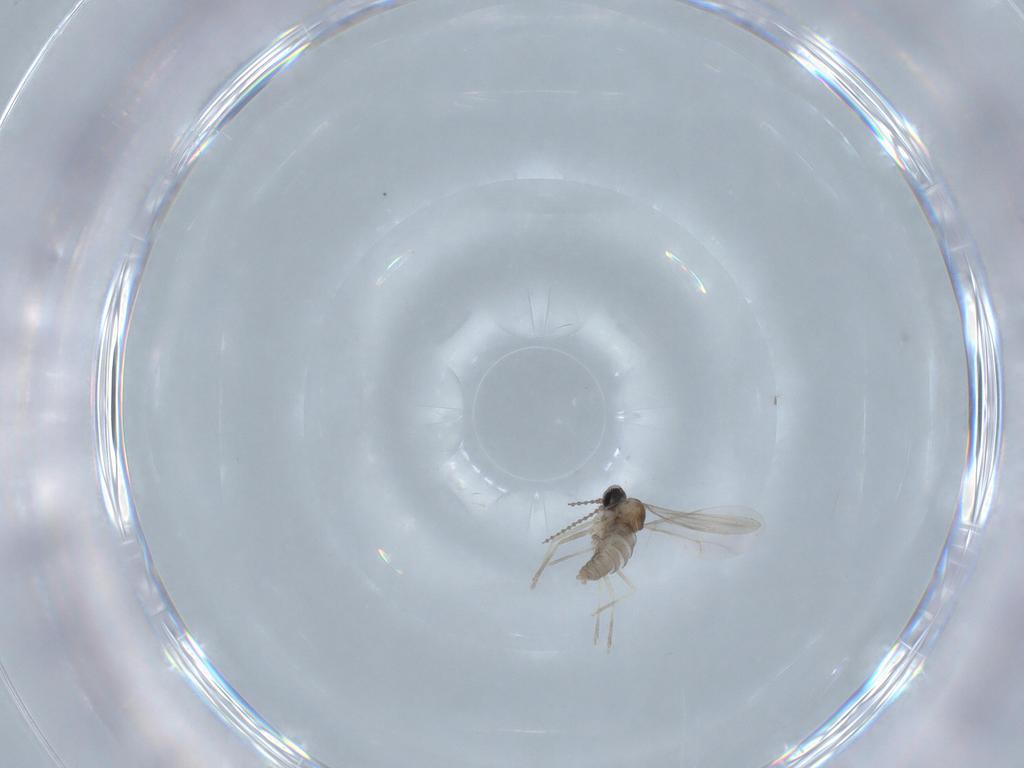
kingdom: Animalia
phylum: Arthropoda
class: Insecta
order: Diptera
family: Cecidomyiidae
